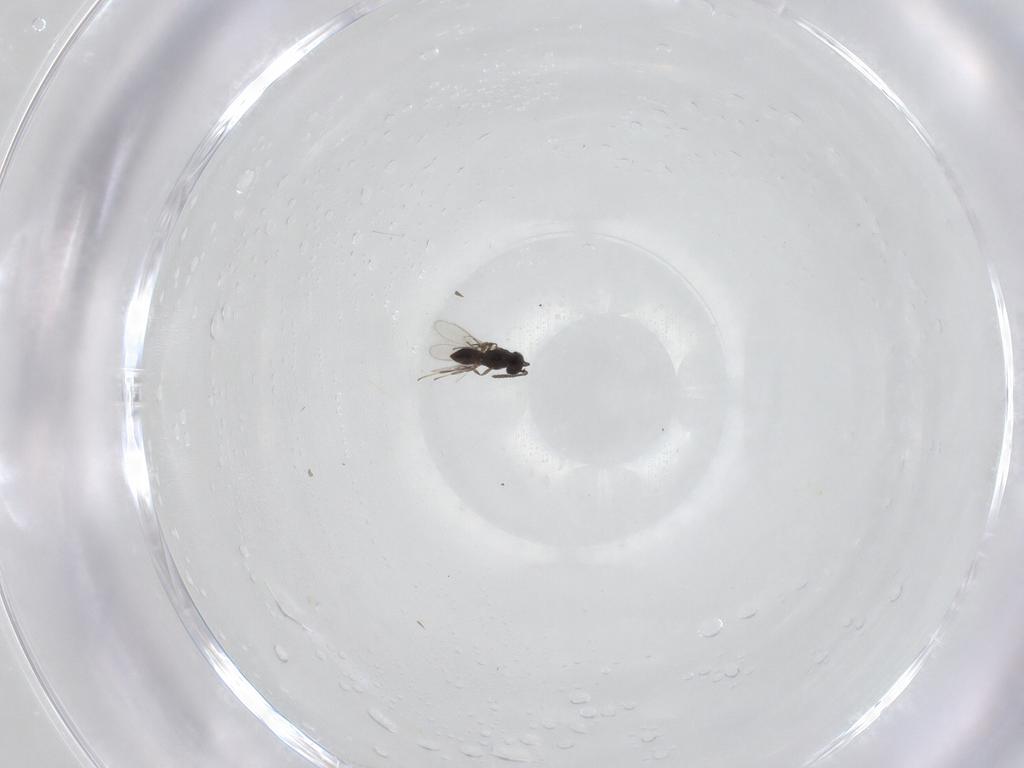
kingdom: Animalia
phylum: Arthropoda
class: Insecta
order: Hymenoptera
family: Scelionidae
